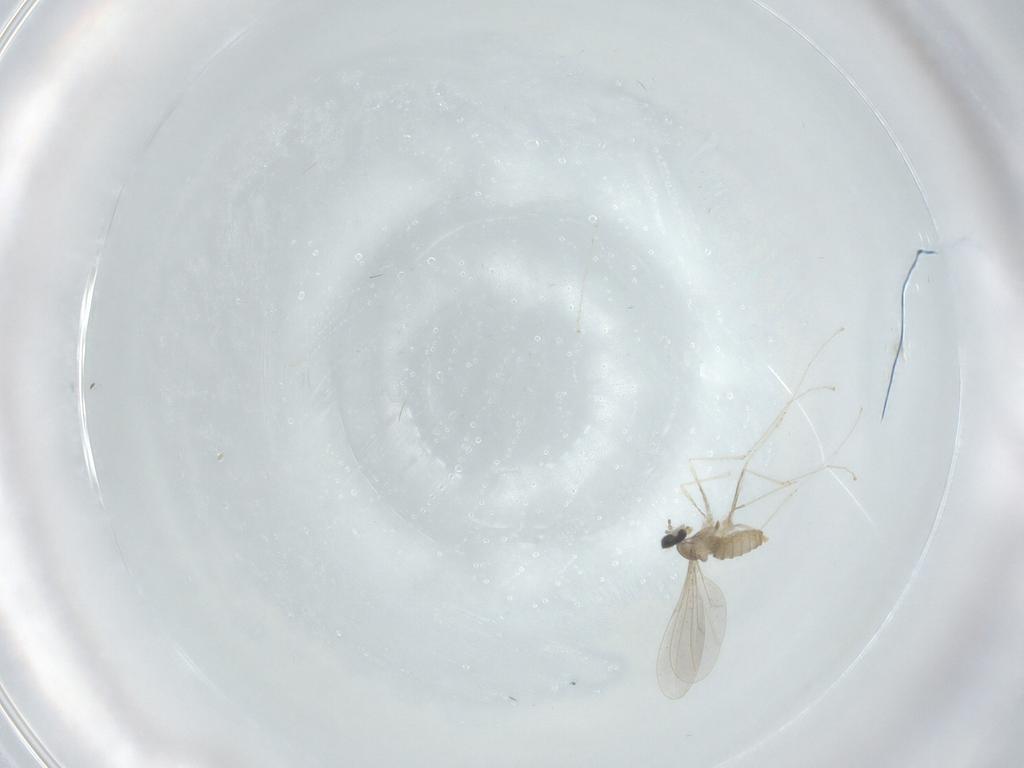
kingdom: Animalia
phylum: Arthropoda
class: Insecta
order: Diptera
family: Cecidomyiidae
